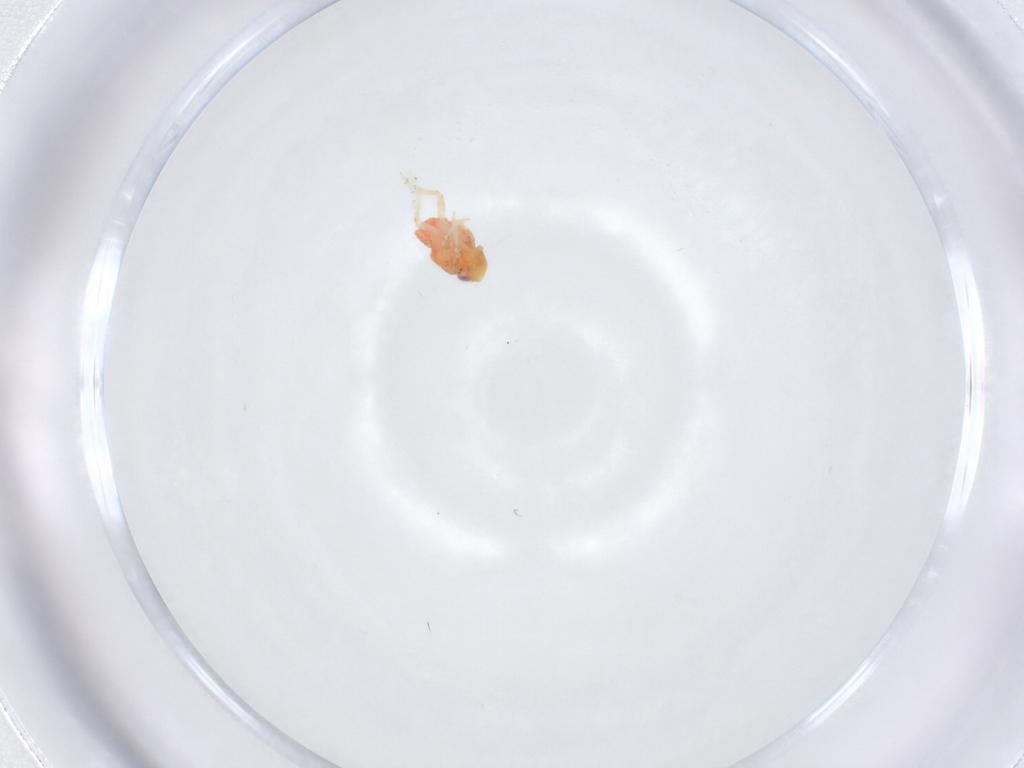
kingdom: Animalia
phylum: Arthropoda
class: Insecta
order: Hemiptera
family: Issidae
